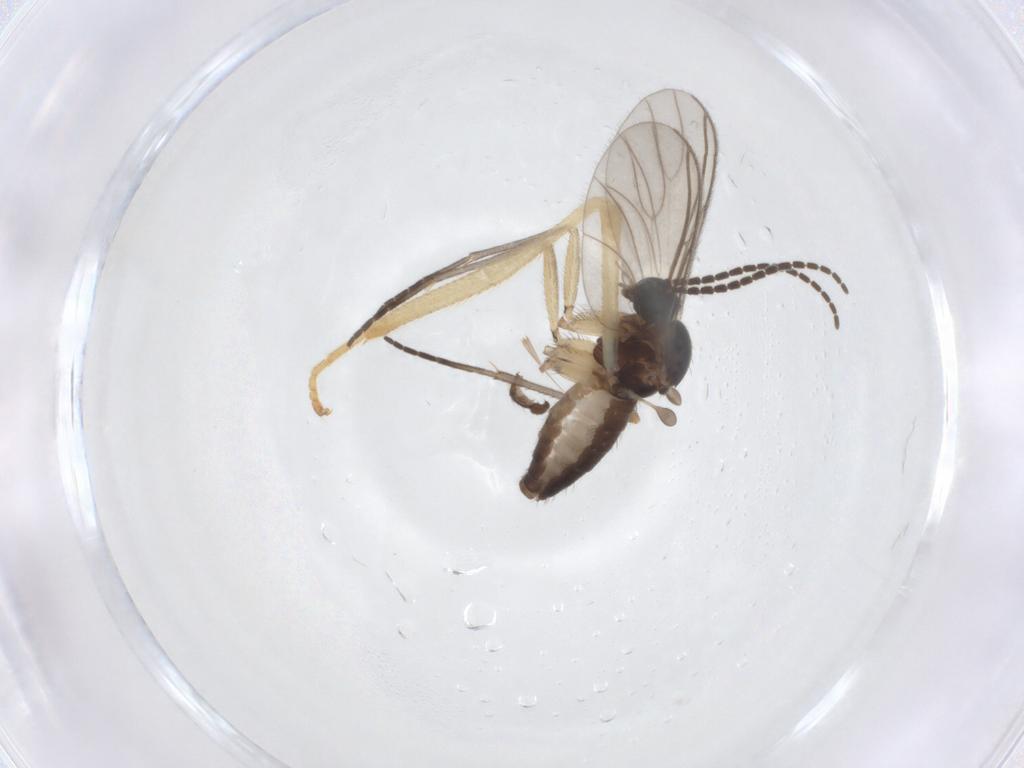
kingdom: Animalia
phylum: Arthropoda
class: Insecta
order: Diptera
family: Sciaridae
